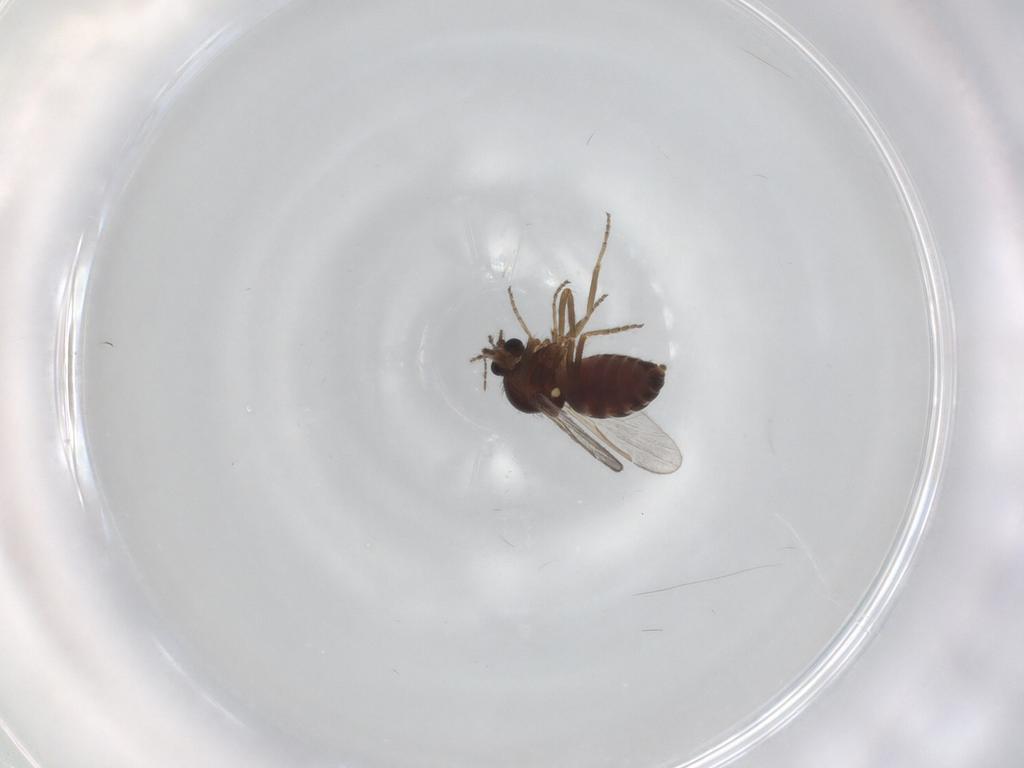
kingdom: Animalia
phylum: Arthropoda
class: Insecta
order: Diptera
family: Ceratopogonidae
